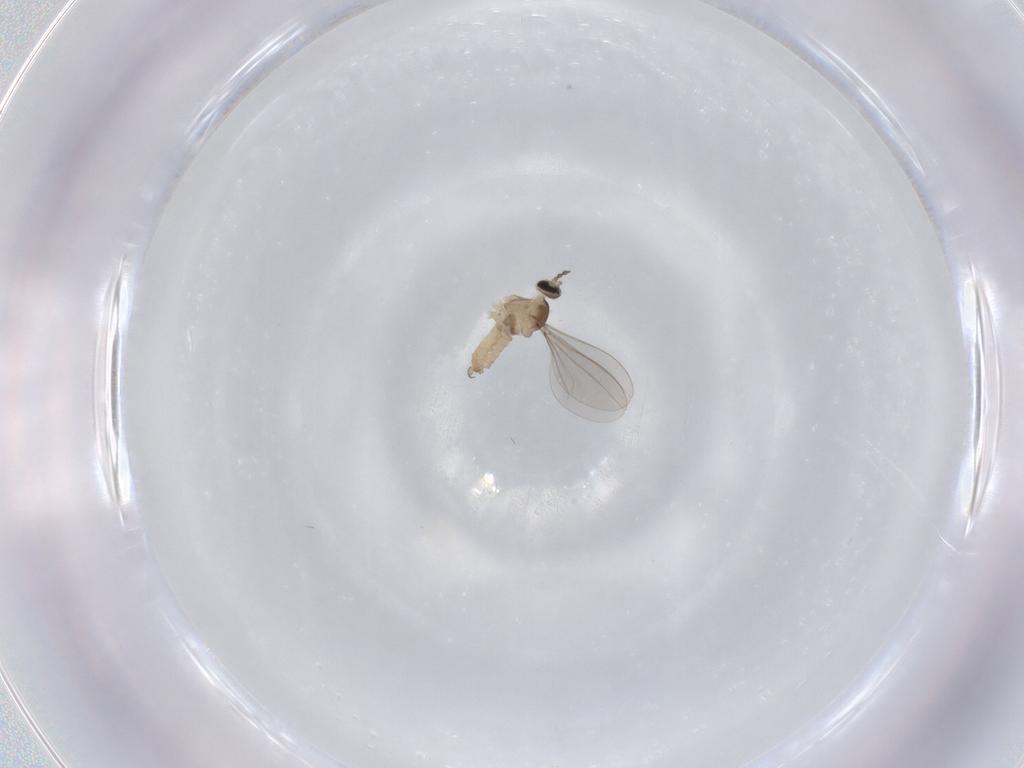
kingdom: Animalia
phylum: Arthropoda
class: Insecta
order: Diptera
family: Cecidomyiidae
